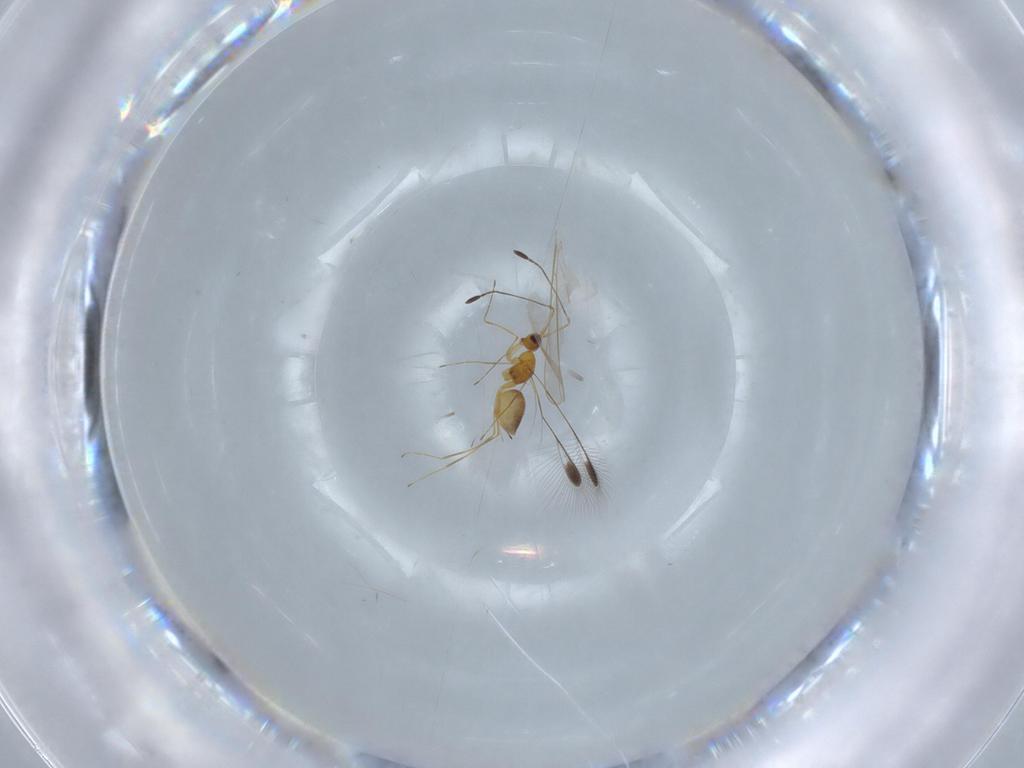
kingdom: Animalia
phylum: Arthropoda
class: Insecta
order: Hymenoptera
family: Mymaridae
